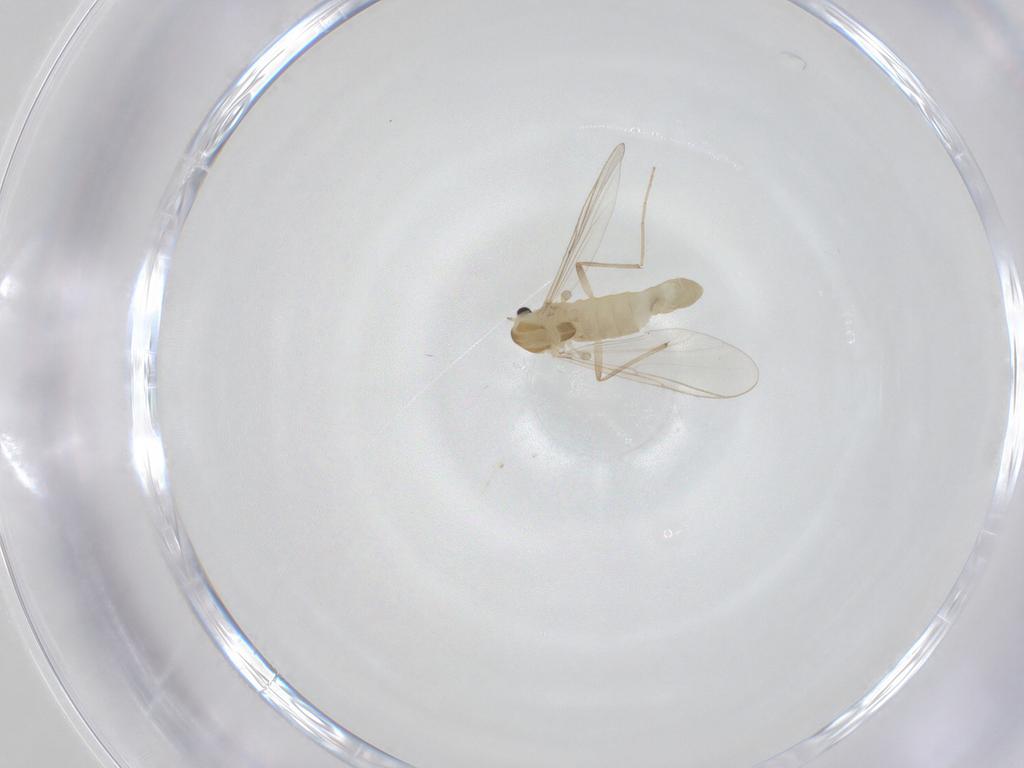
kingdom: Animalia
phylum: Arthropoda
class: Insecta
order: Diptera
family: Chironomidae
